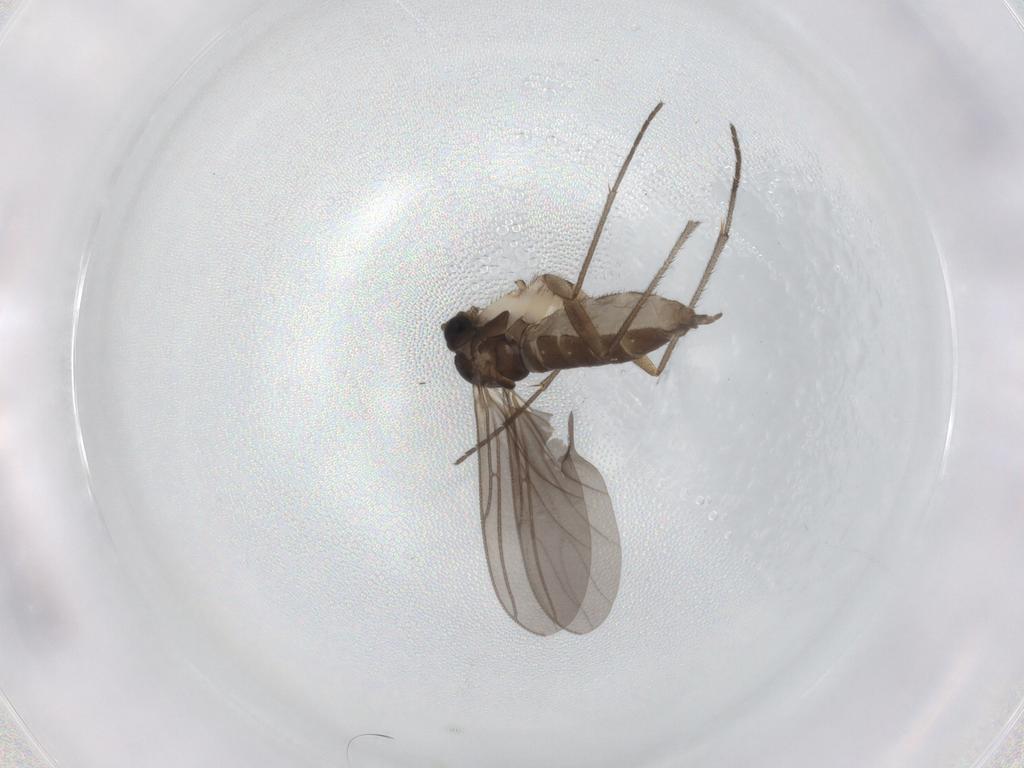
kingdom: Animalia
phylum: Arthropoda
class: Insecta
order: Diptera
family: Sciaridae
